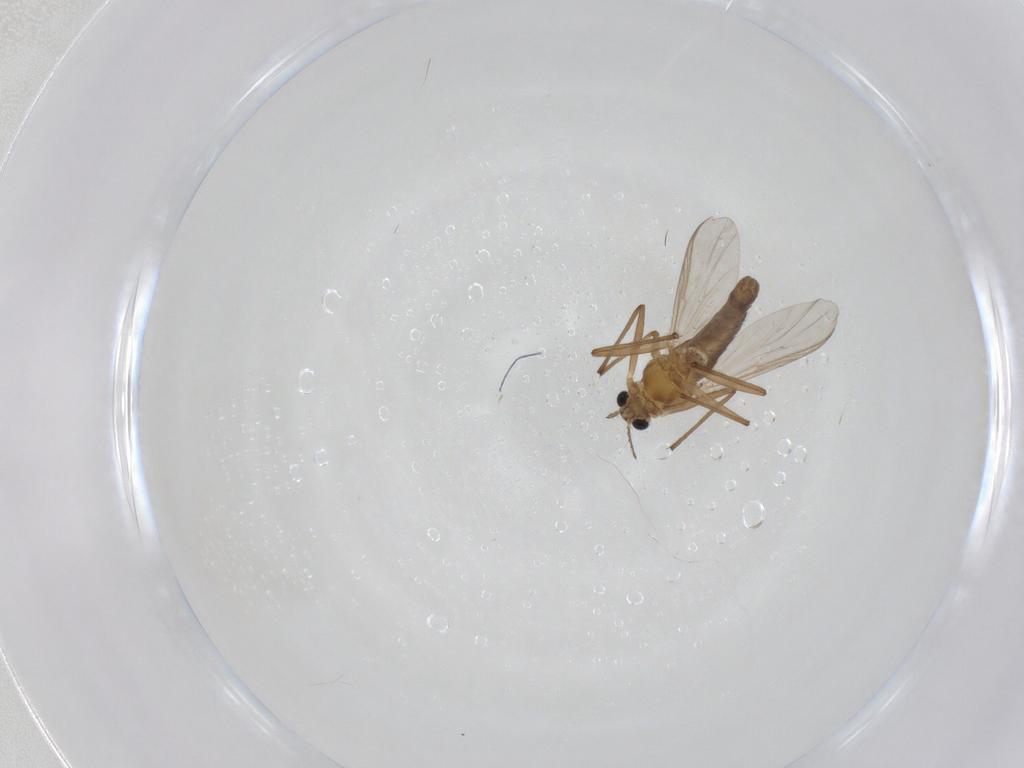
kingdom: Animalia
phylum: Arthropoda
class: Insecta
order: Diptera
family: Chironomidae
